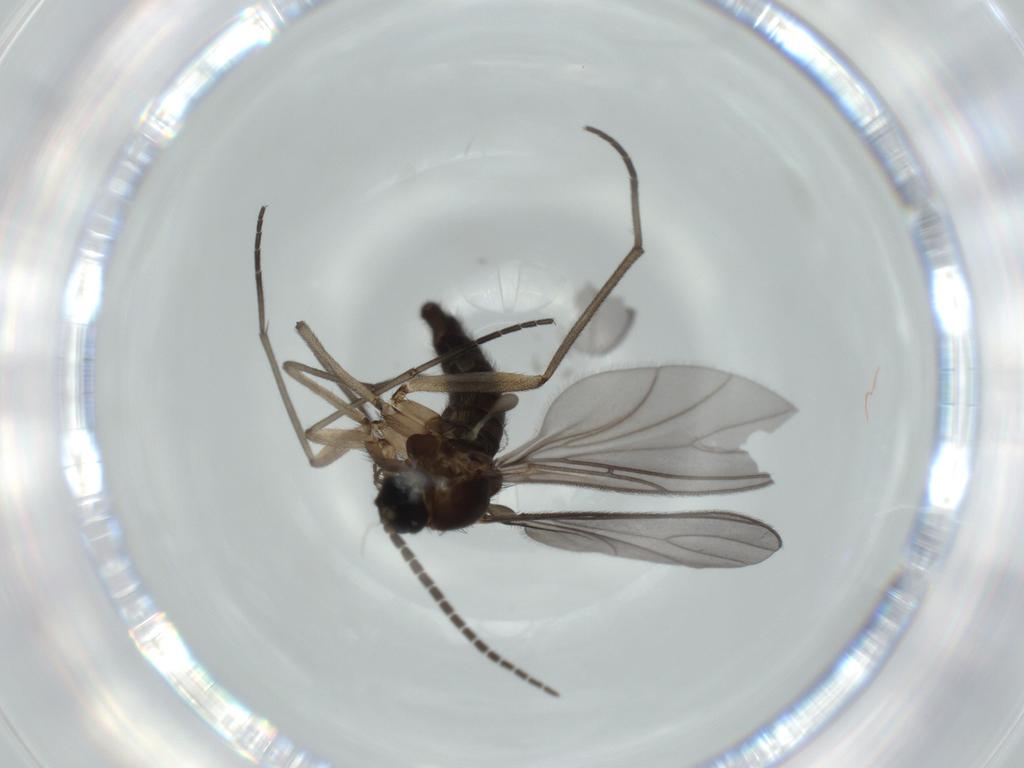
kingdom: Animalia
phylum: Arthropoda
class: Insecta
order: Diptera
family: Sciaridae
